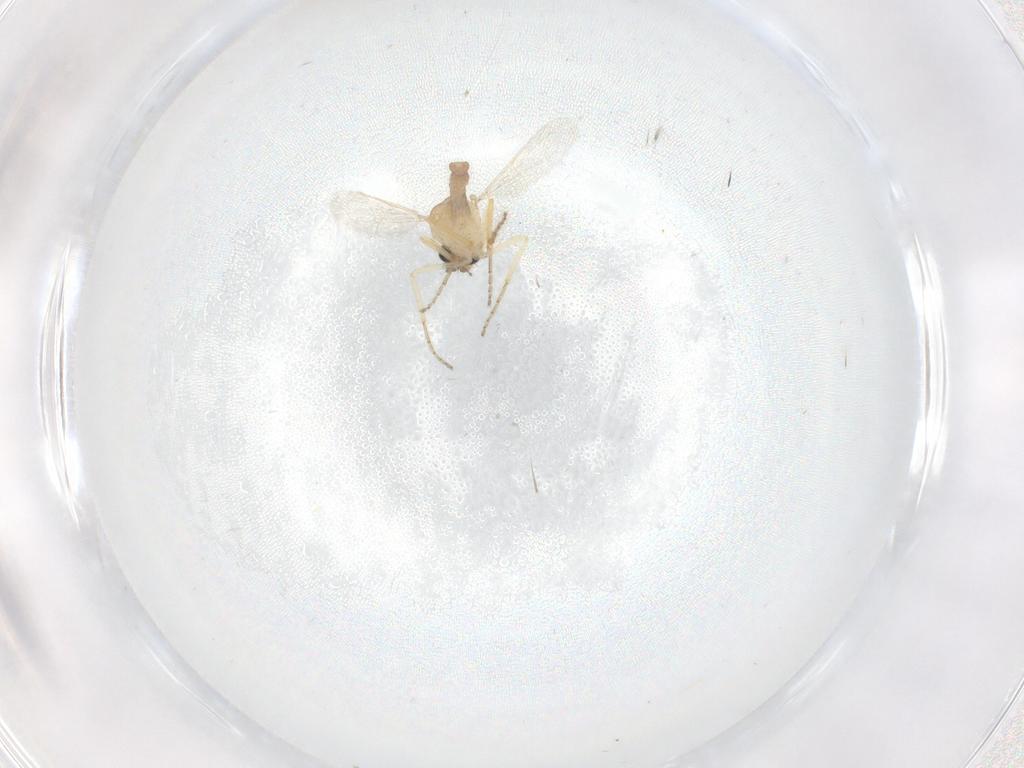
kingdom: Animalia
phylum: Arthropoda
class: Insecta
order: Diptera
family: Ceratopogonidae
